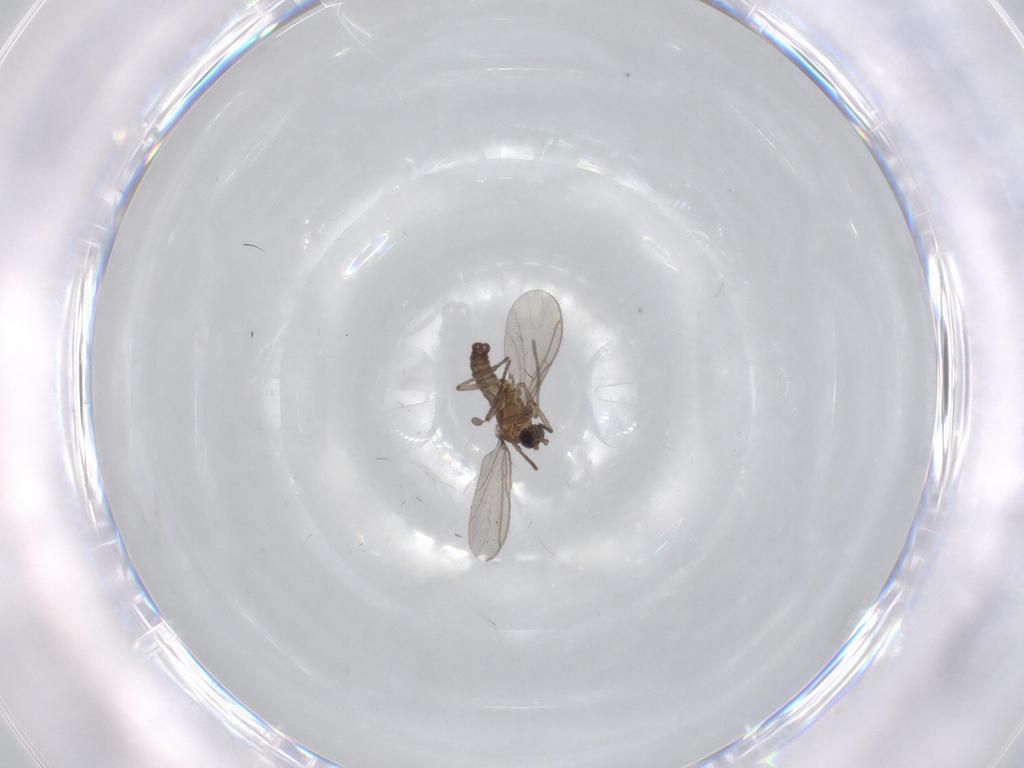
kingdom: Animalia
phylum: Arthropoda
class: Insecta
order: Diptera
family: Psychodidae
